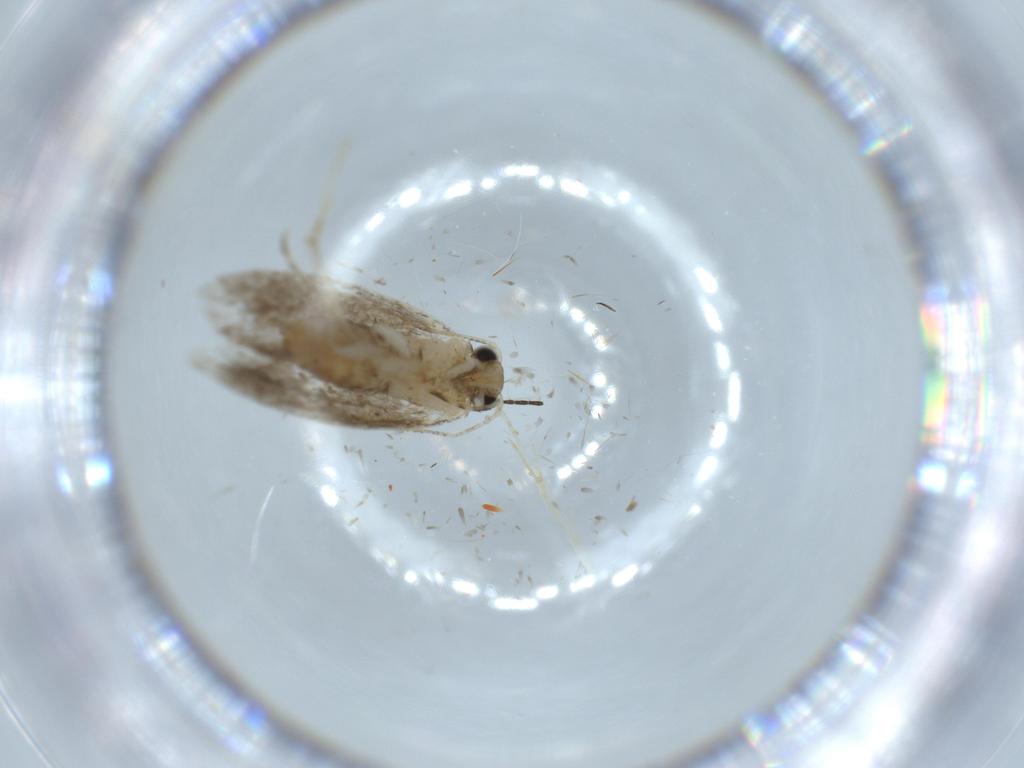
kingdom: Animalia
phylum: Arthropoda
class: Insecta
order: Lepidoptera
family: Tineidae
